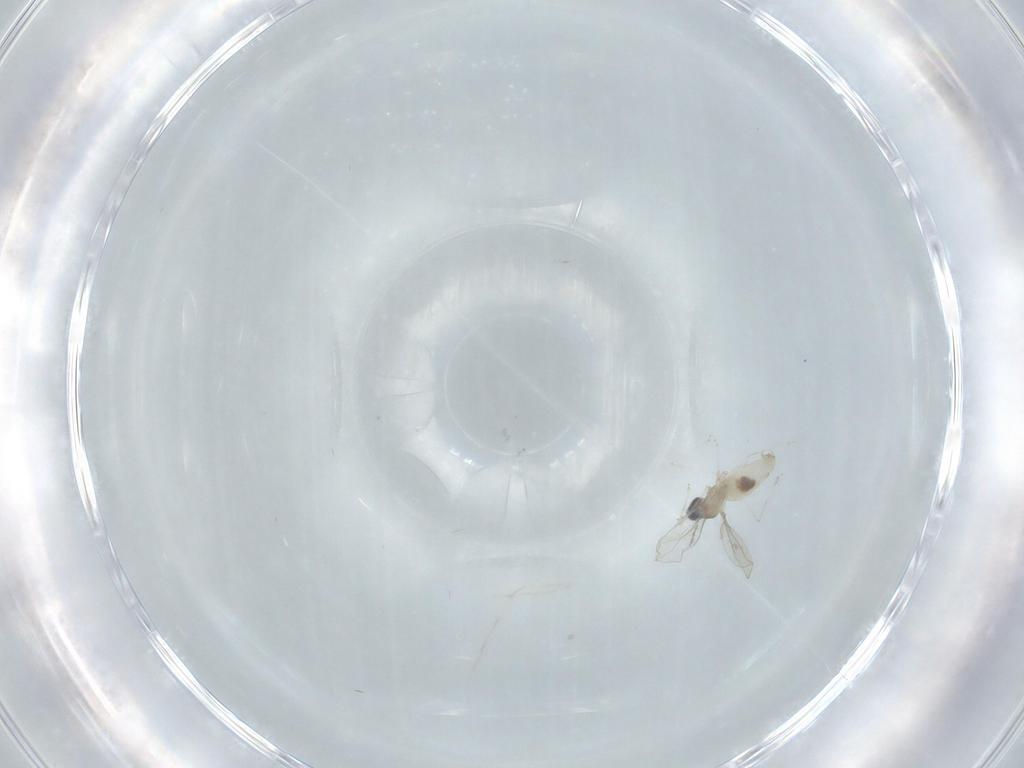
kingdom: Animalia
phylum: Arthropoda
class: Insecta
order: Diptera
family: Cecidomyiidae
